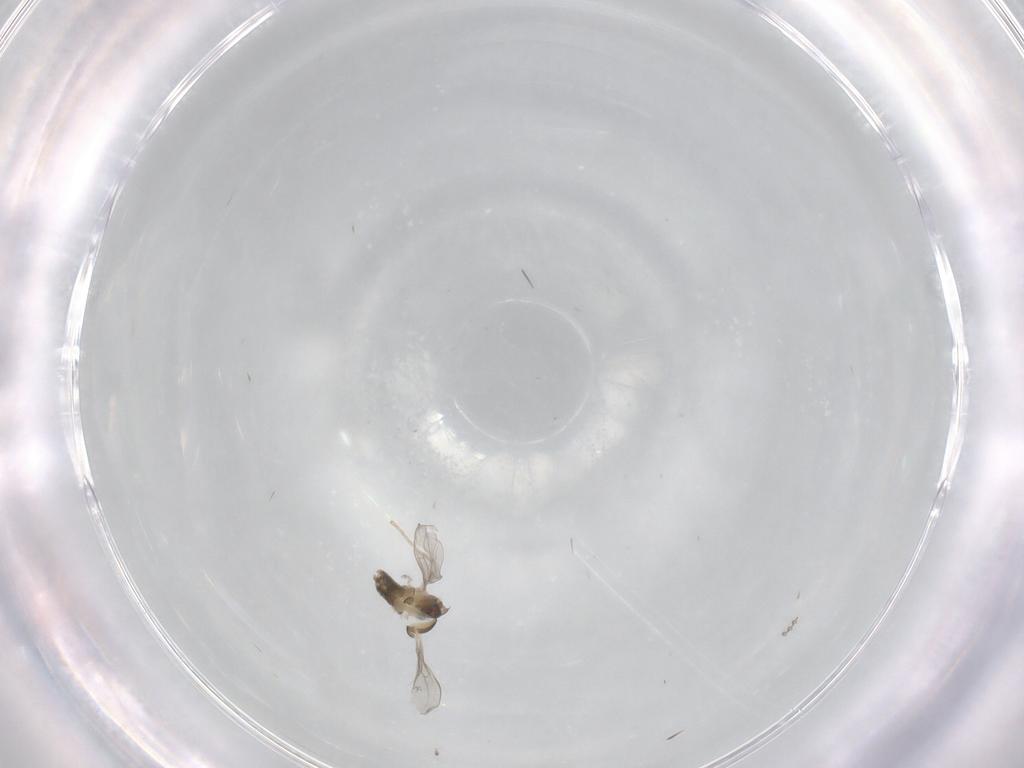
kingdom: Animalia
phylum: Arthropoda
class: Insecta
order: Diptera
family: Cecidomyiidae
